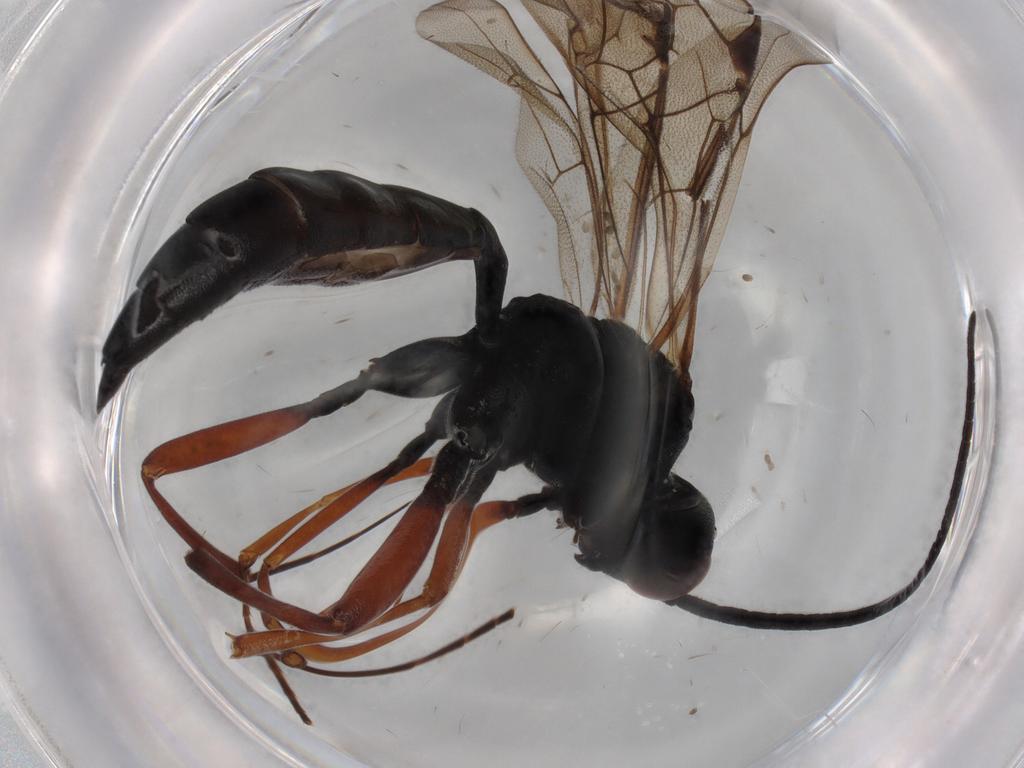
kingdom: Animalia
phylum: Arthropoda
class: Insecta
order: Hymenoptera
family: Ichneumonidae
